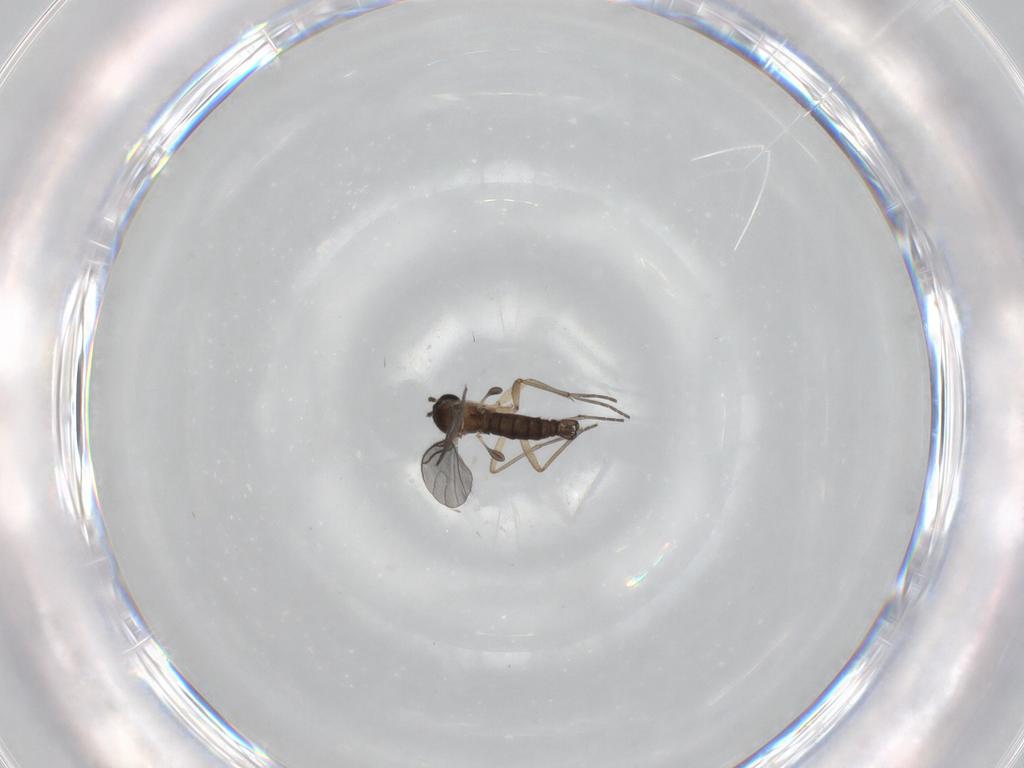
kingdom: Animalia
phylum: Arthropoda
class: Insecta
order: Diptera
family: Sciaridae
